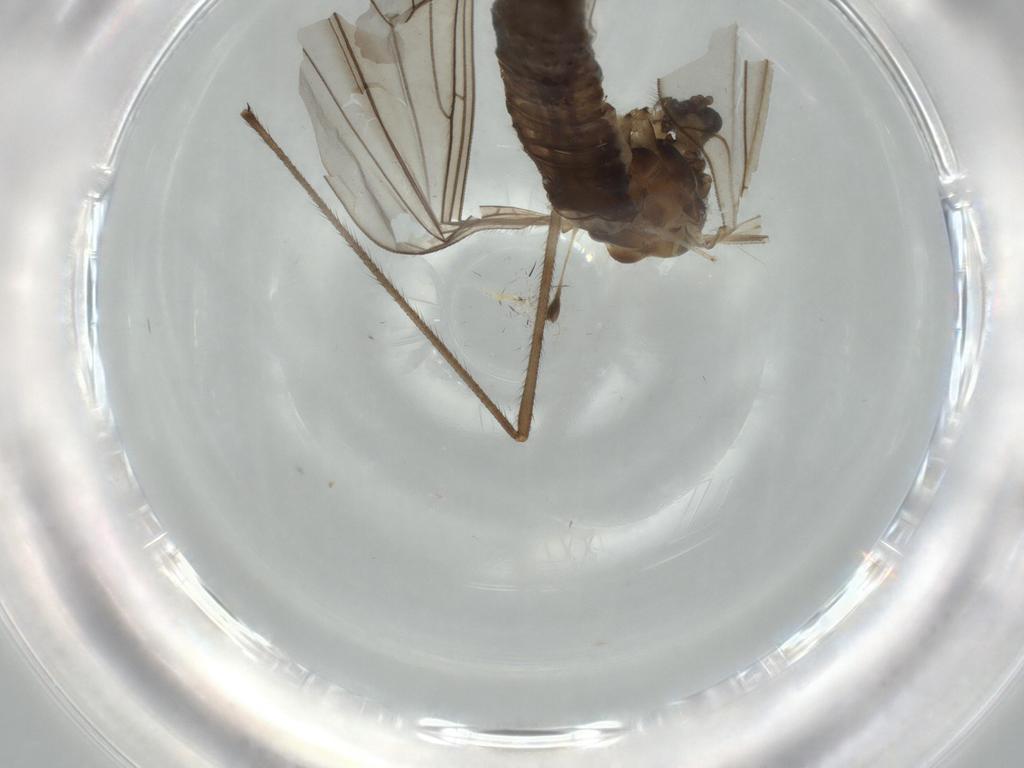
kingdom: Animalia
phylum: Arthropoda
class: Insecta
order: Diptera
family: Trichoceridae
